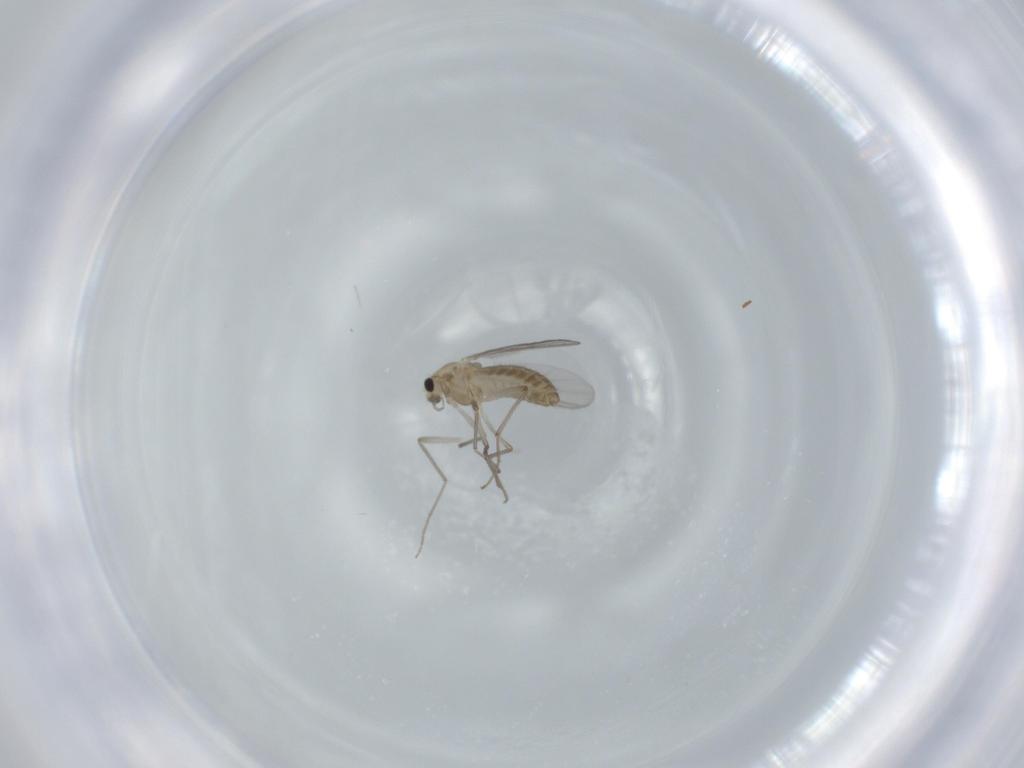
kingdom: Animalia
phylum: Arthropoda
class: Insecta
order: Diptera
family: Chironomidae
